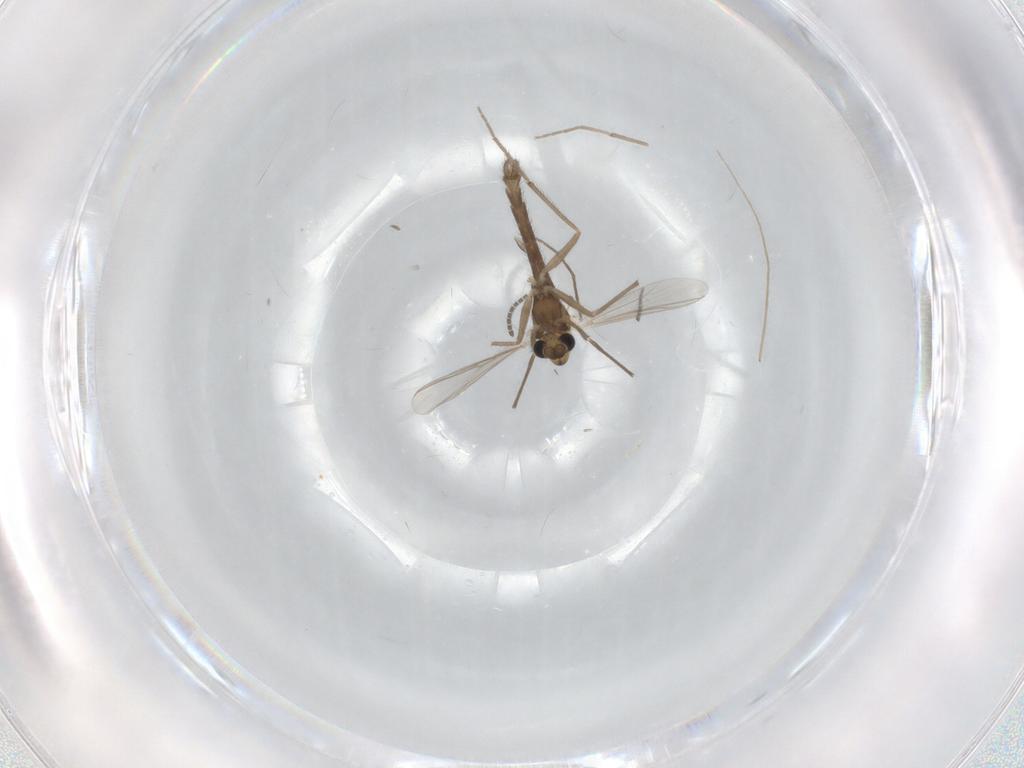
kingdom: Animalia
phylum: Arthropoda
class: Insecta
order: Diptera
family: Chironomidae
